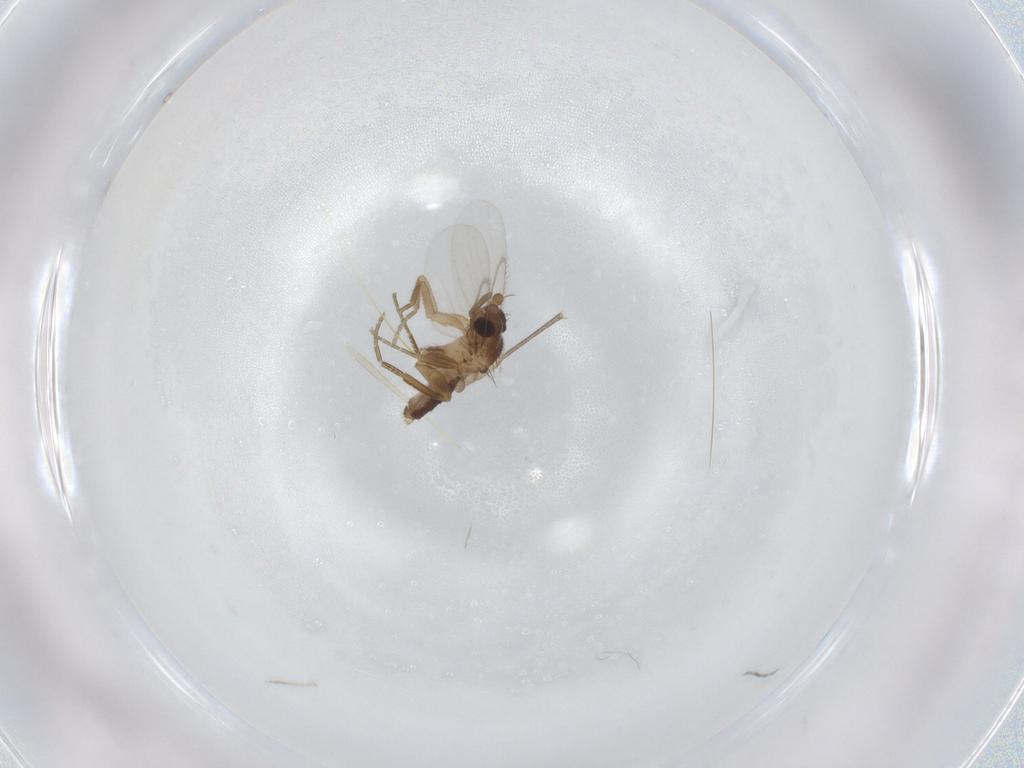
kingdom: Animalia
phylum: Arthropoda
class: Insecta
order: Diptera
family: Sciaridae
